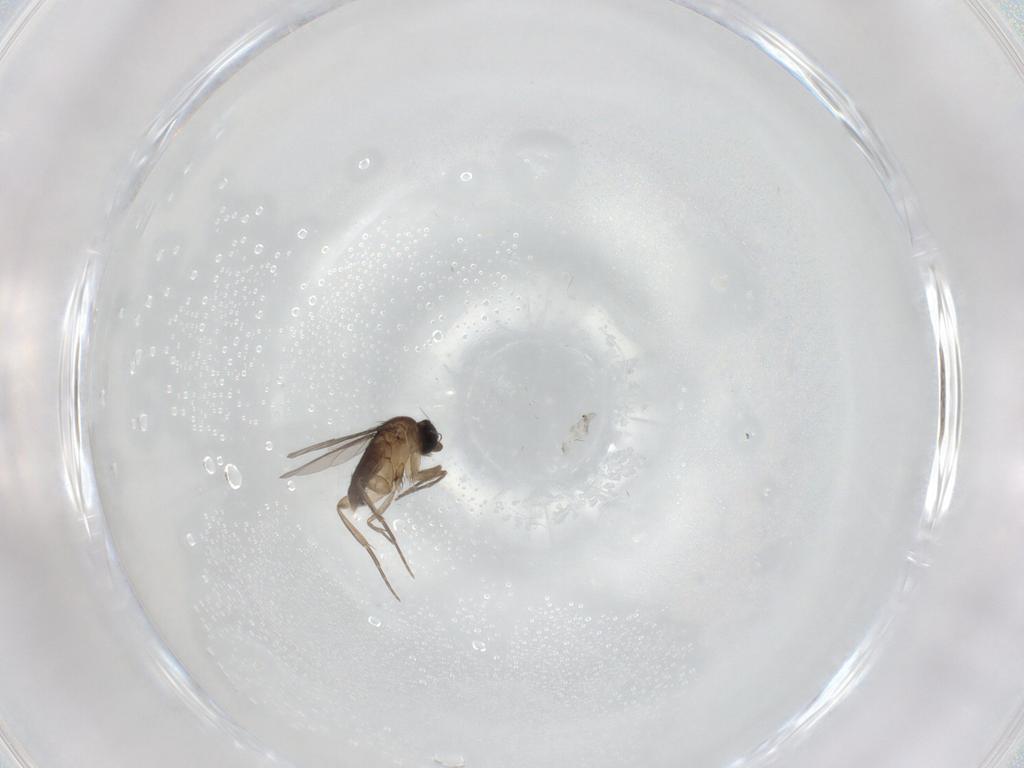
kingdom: Animalia
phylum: Arthropoda
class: Insecta
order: Diptera
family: Phoridae
